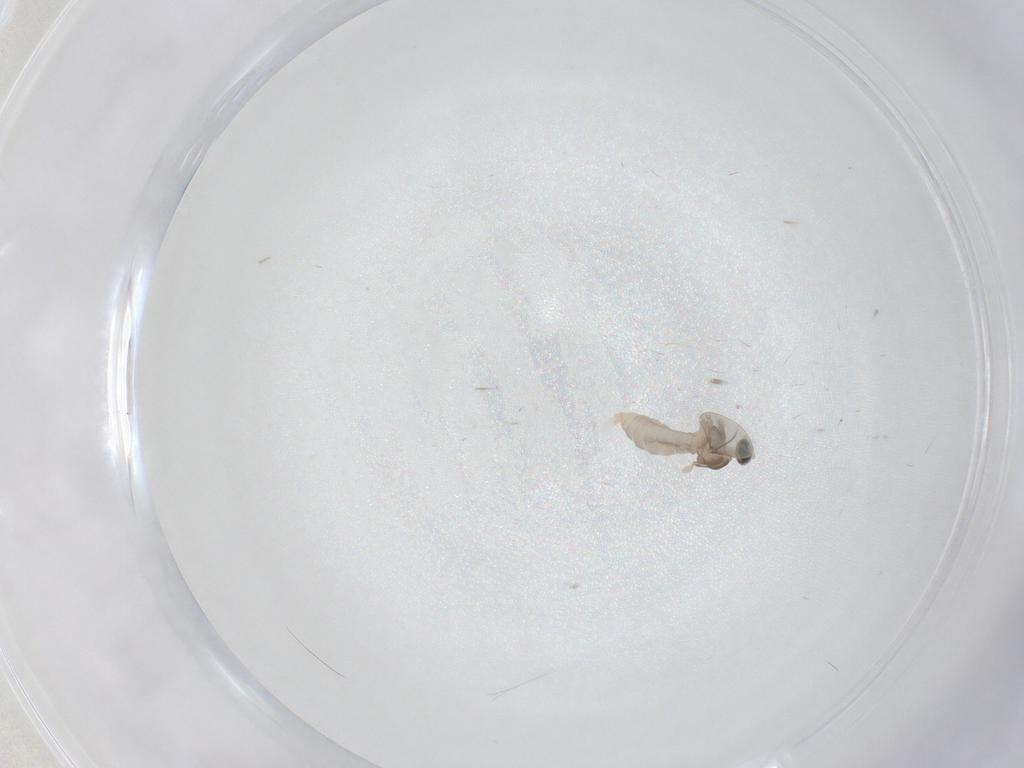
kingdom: Animalia
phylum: Arthropoda
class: Insecta
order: Diptera
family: Cecidomyiidae
